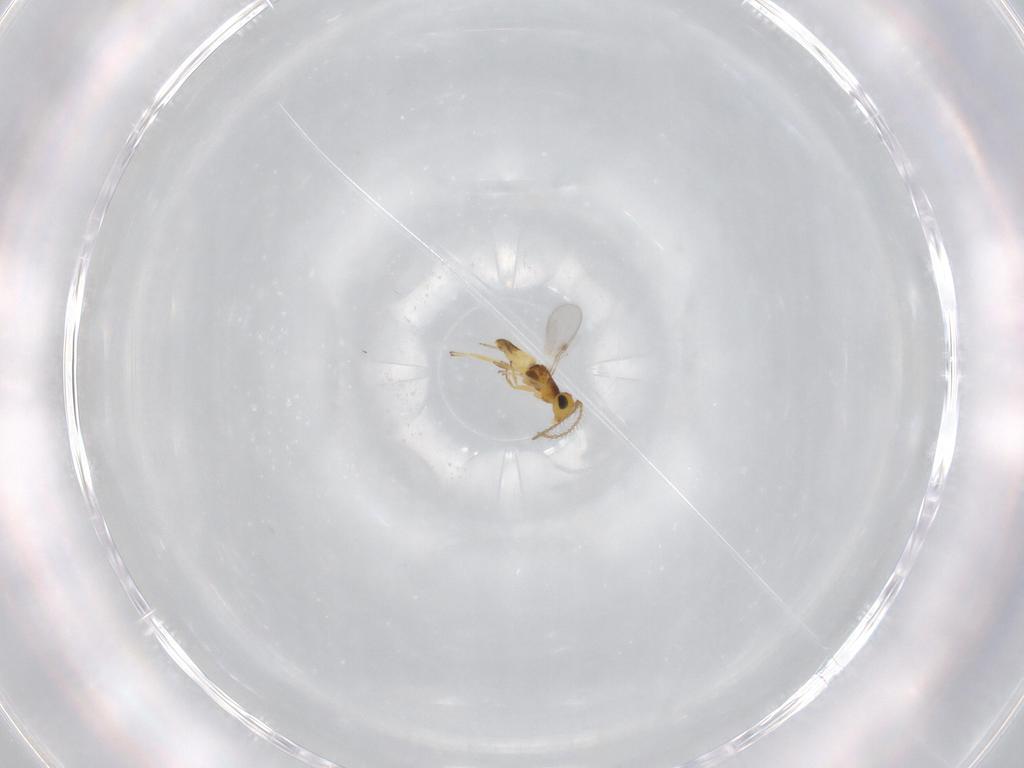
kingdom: Animalia
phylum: Arthropoda
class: Insecta
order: Hymenoptera
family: Encyrtidae
